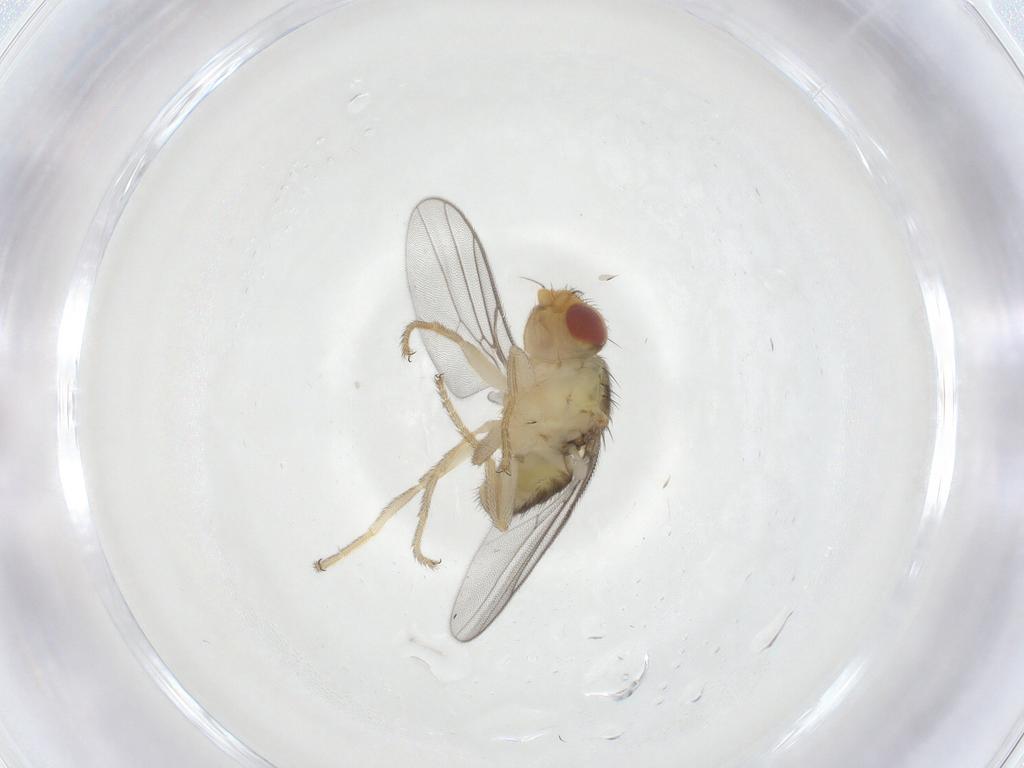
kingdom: Animalia
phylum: Arthropoda
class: Insecta
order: Diptera
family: Chloropidae
